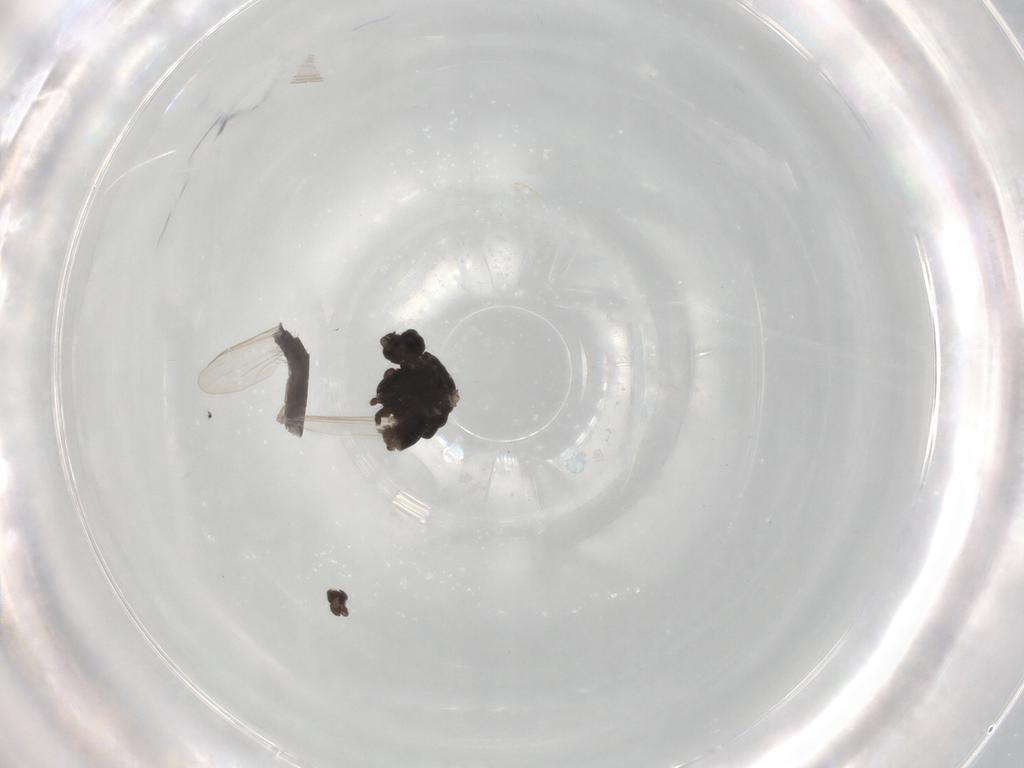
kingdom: Animalia
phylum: Arthropoda
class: Insecta
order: Diptera
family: Chironomidae
